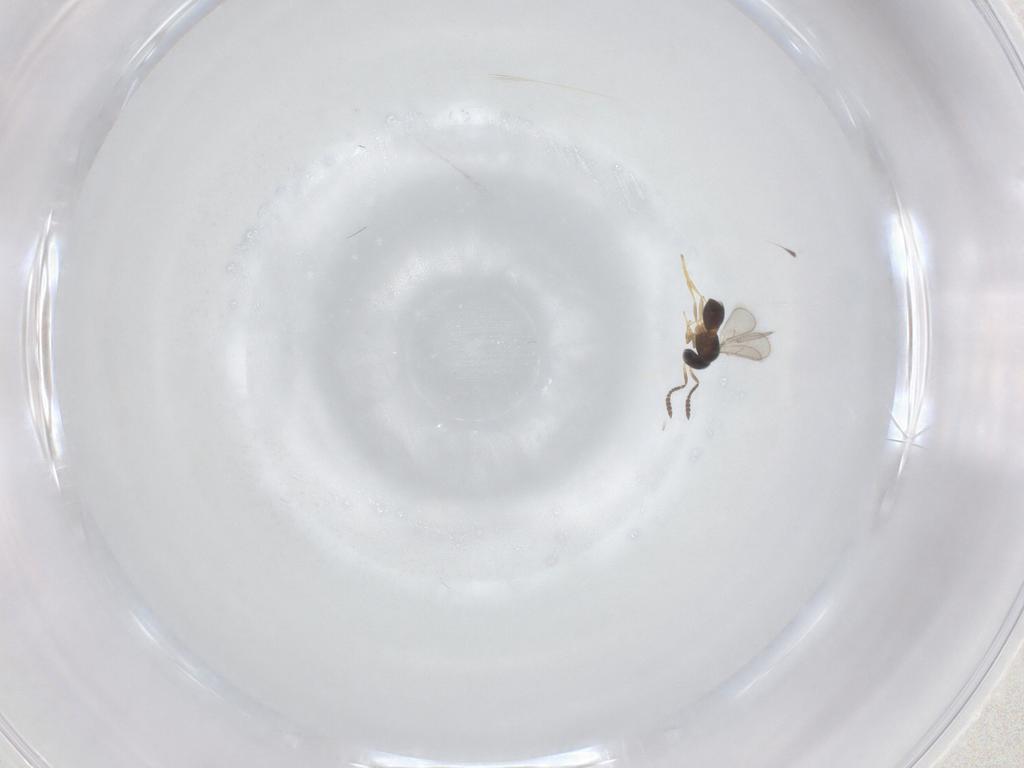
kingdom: Animalia
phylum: Arthropoda
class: Insecta
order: Hymenoptera
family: Scelionidae
